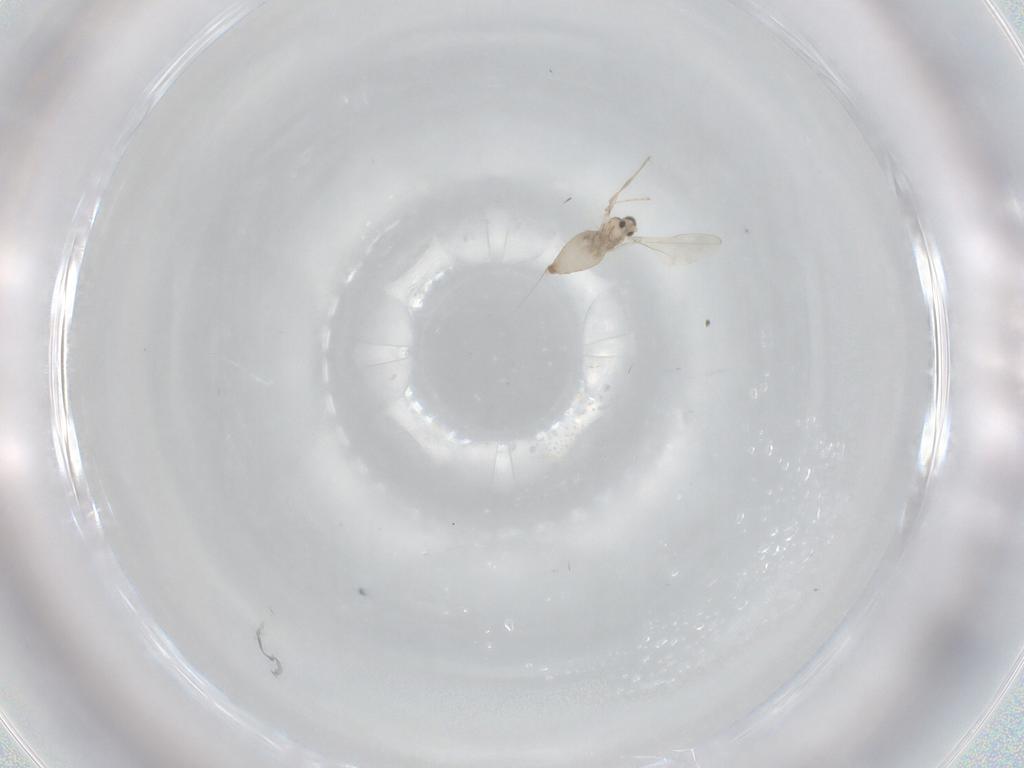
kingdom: Animalia
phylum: Arthropoda
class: Insecta
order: Diptera
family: Cecidomyiidae
